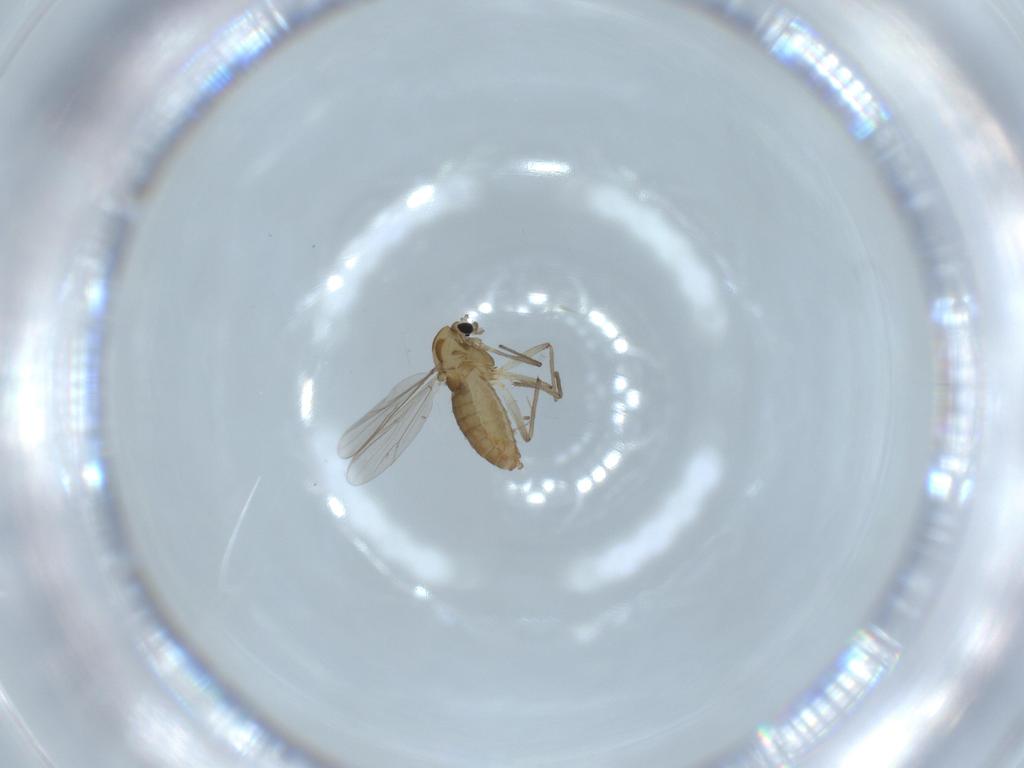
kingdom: Animalia
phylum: Arthropoda
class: Insecta
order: Diptera
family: Chironomidae
